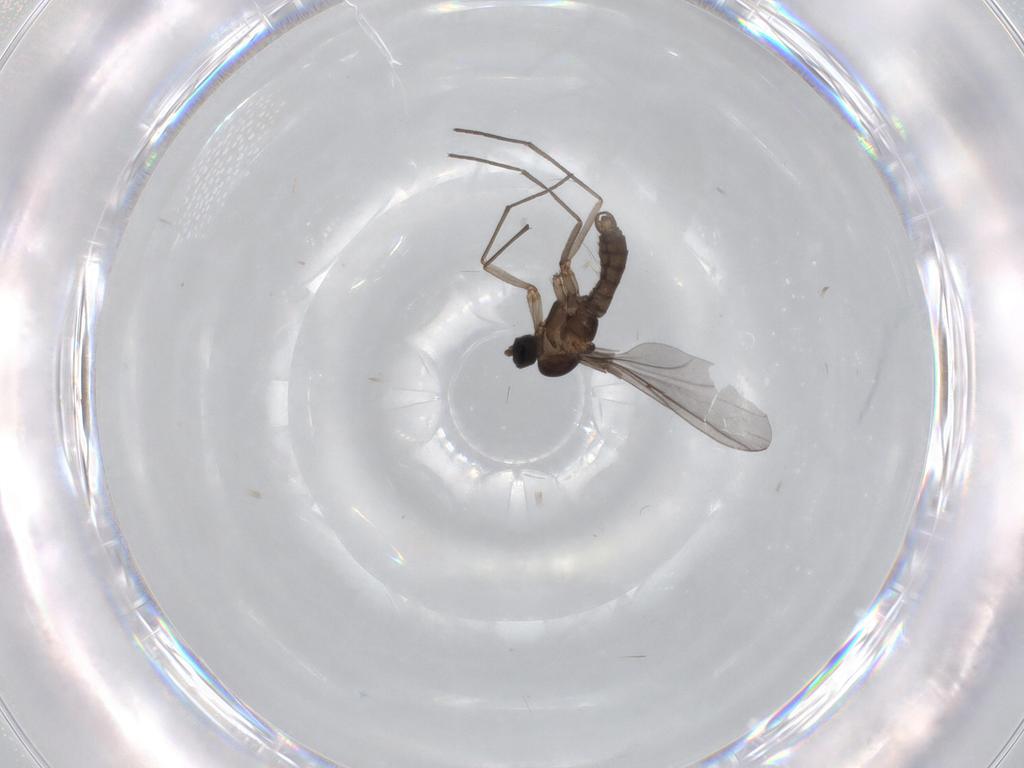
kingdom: Animalia
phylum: Arthropoda
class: Insecta
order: Diptera
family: Sciaridae
